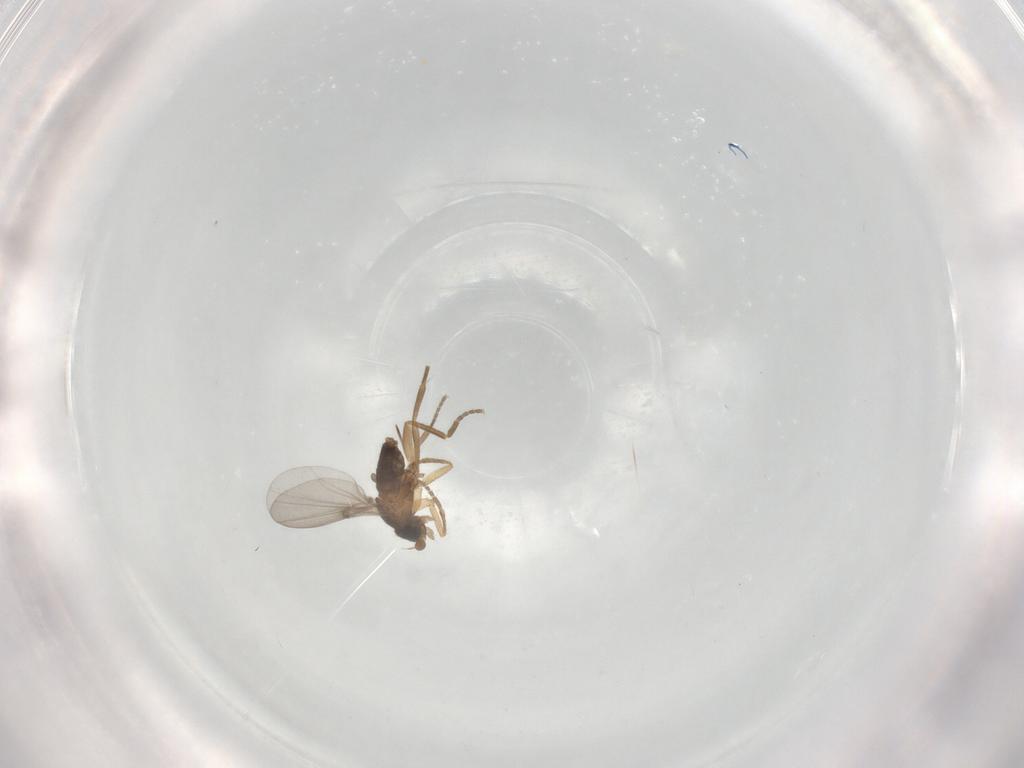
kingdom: Animalia
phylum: Arthropoda
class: Insecta
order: Diptera
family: Phoridae
